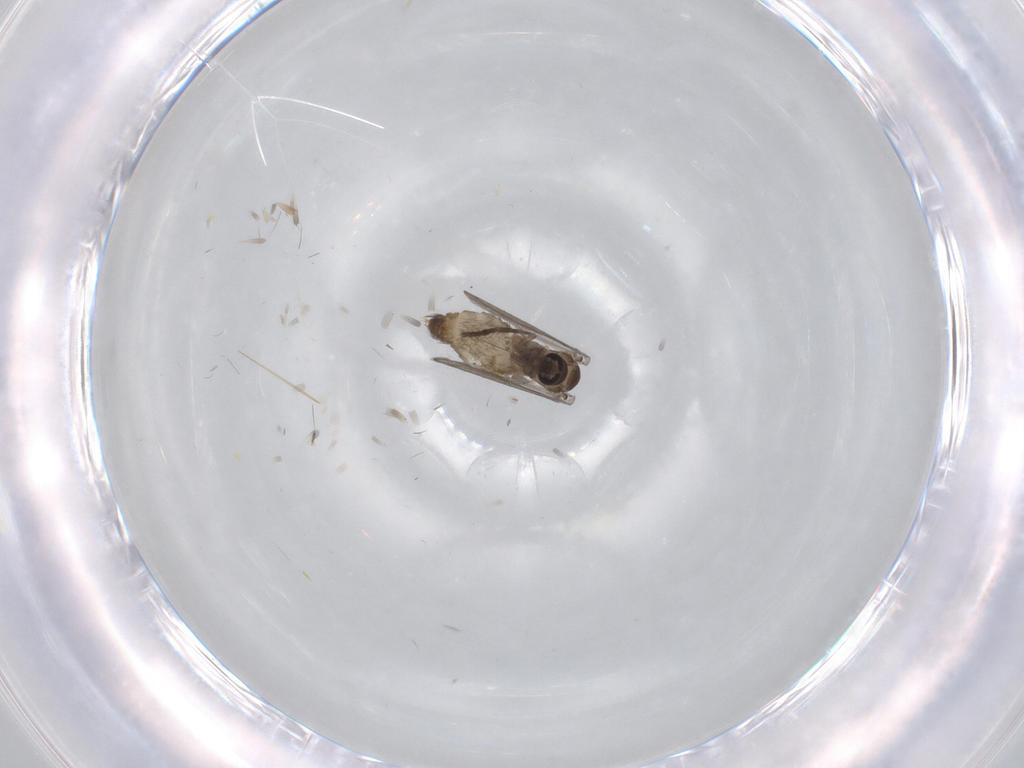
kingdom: Animalia
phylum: Arthropoda
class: Insecta
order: Diptera
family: Psychodidae
